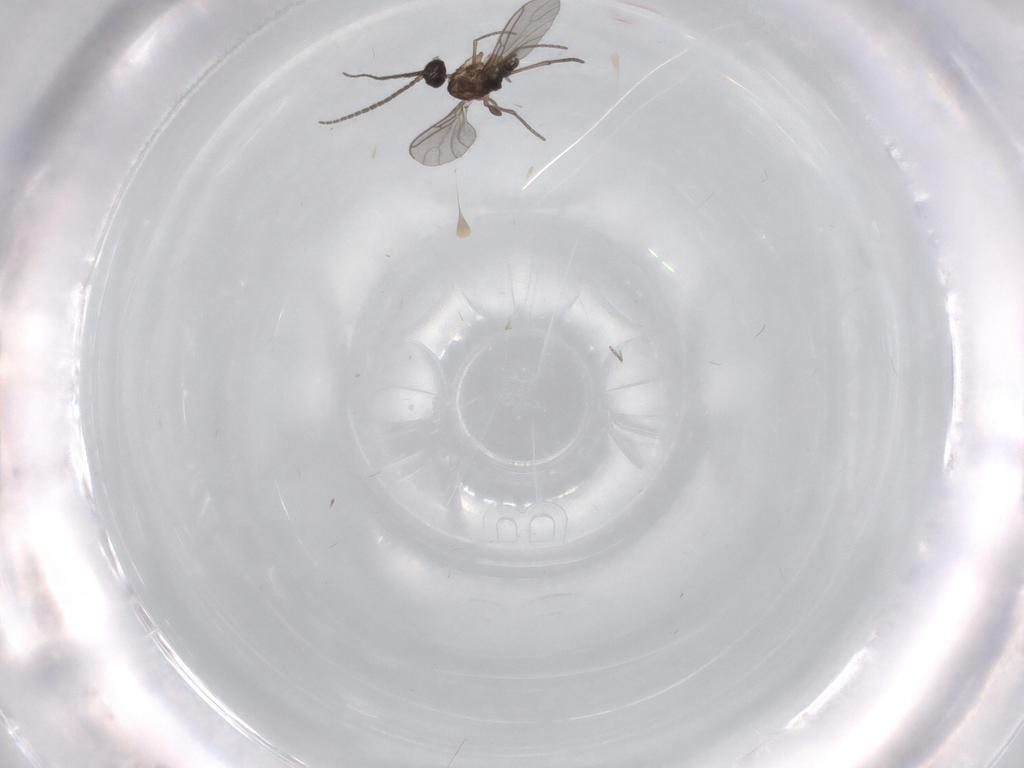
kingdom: Animalia
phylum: Arthropoda
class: Insecta
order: Diptera
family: Sciaridae
